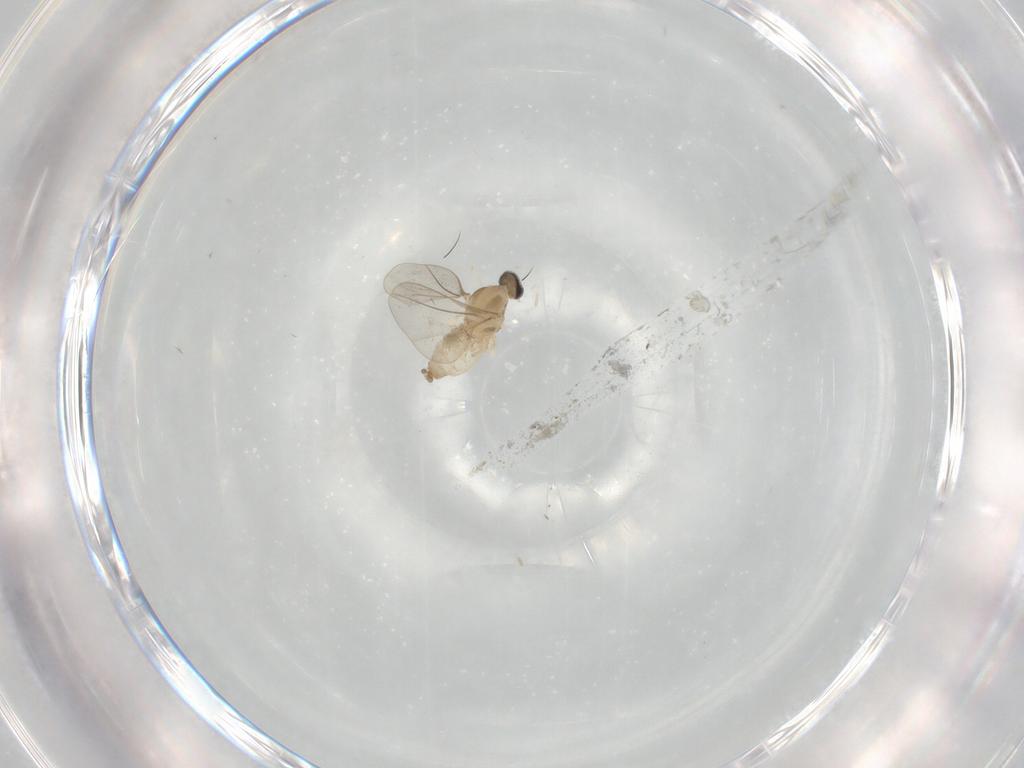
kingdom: Animalia
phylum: Arthropoda
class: Insecta
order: Diptera
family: Cecidomyiidae
